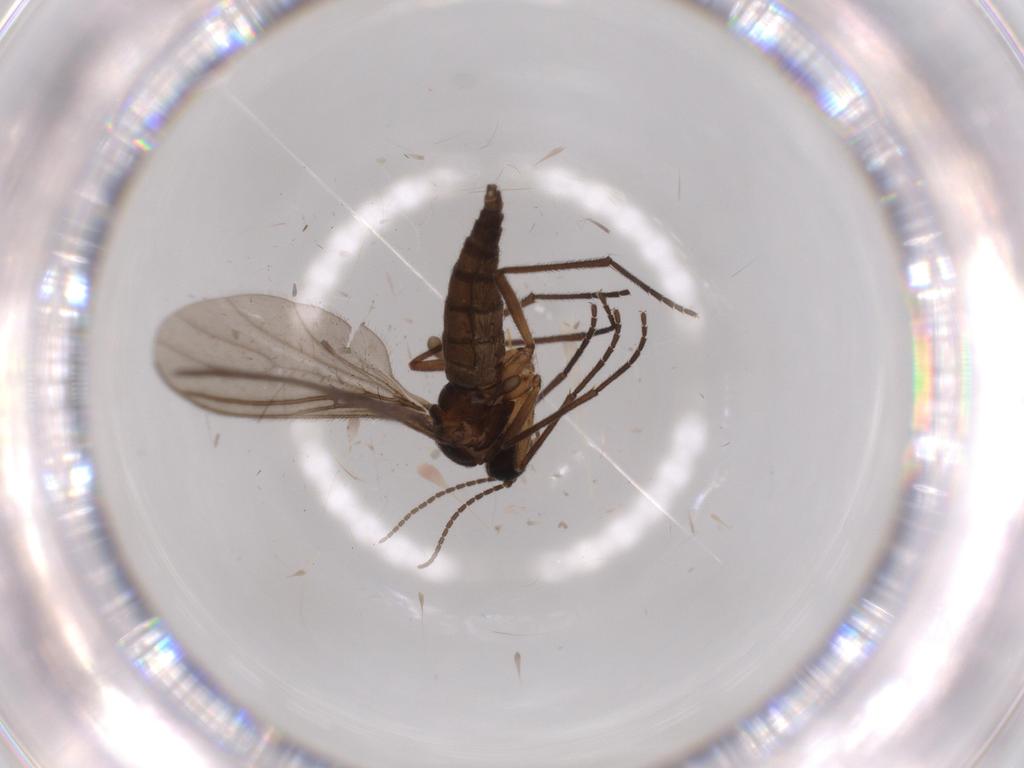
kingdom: Animalia
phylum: Arthropoda
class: Insecta
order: Diptera
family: Sciaridae
